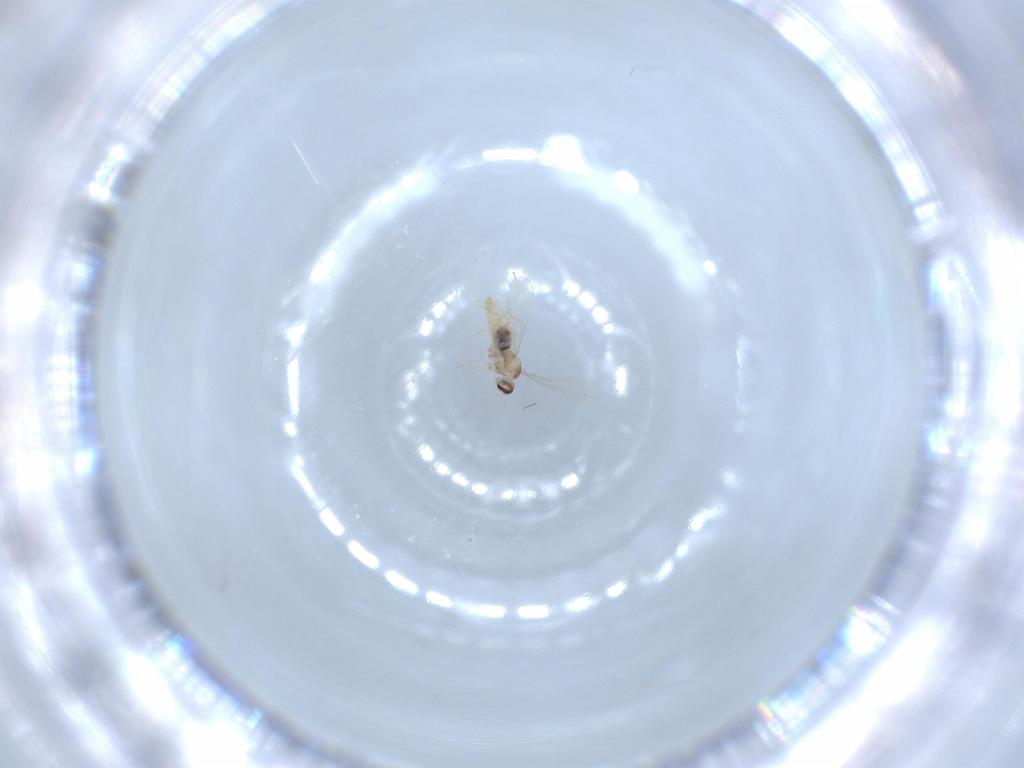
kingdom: Animalia
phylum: Arthropoda
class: Insecta
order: Diptera
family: Cecidomyiidae
